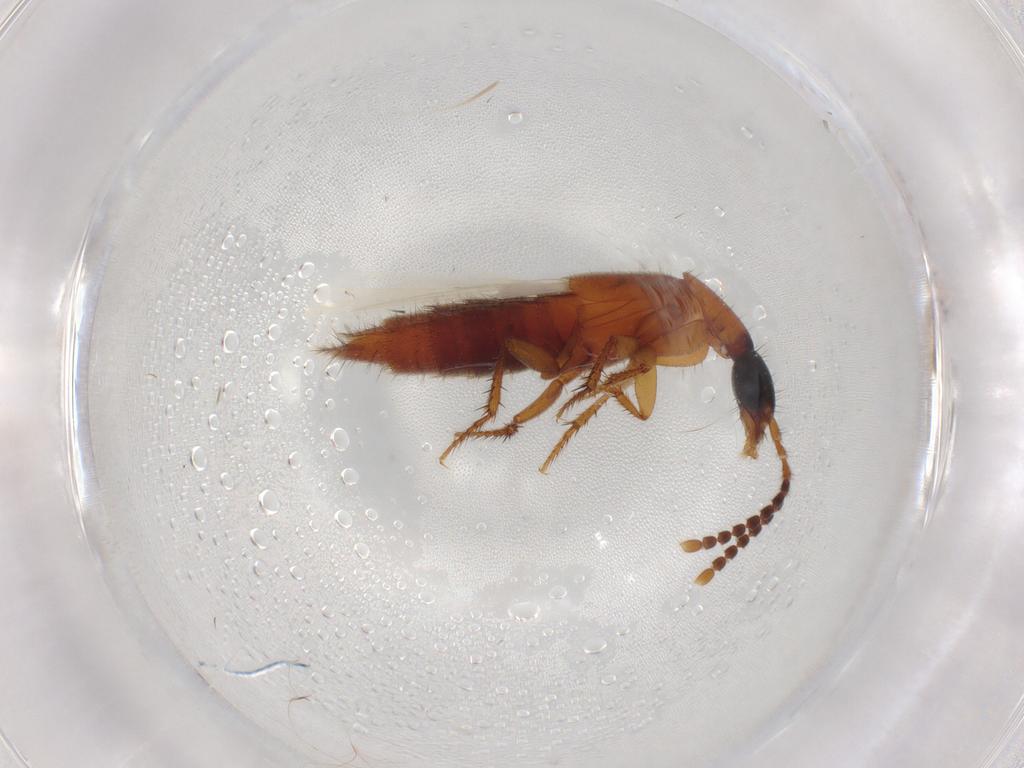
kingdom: Animalia
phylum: Arthropoda
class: Insecta
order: Coleoptera
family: Staphylinidae
